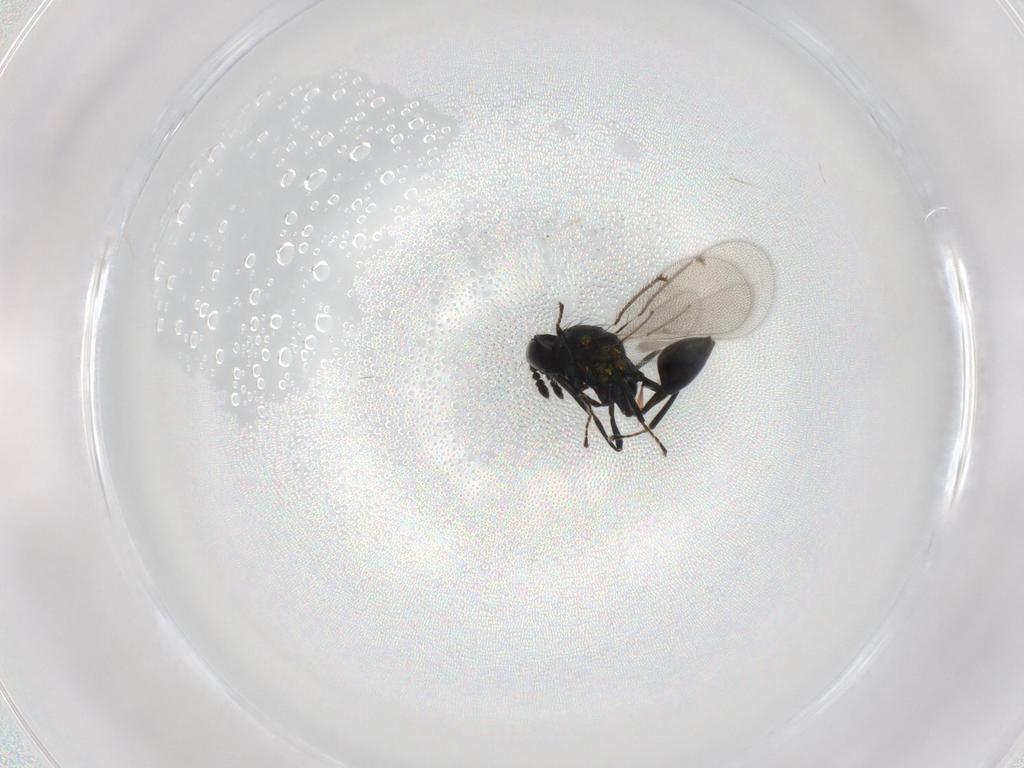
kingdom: Animalia
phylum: Arthropoda
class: Insecta
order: Hymenoptera
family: Eulophidae
